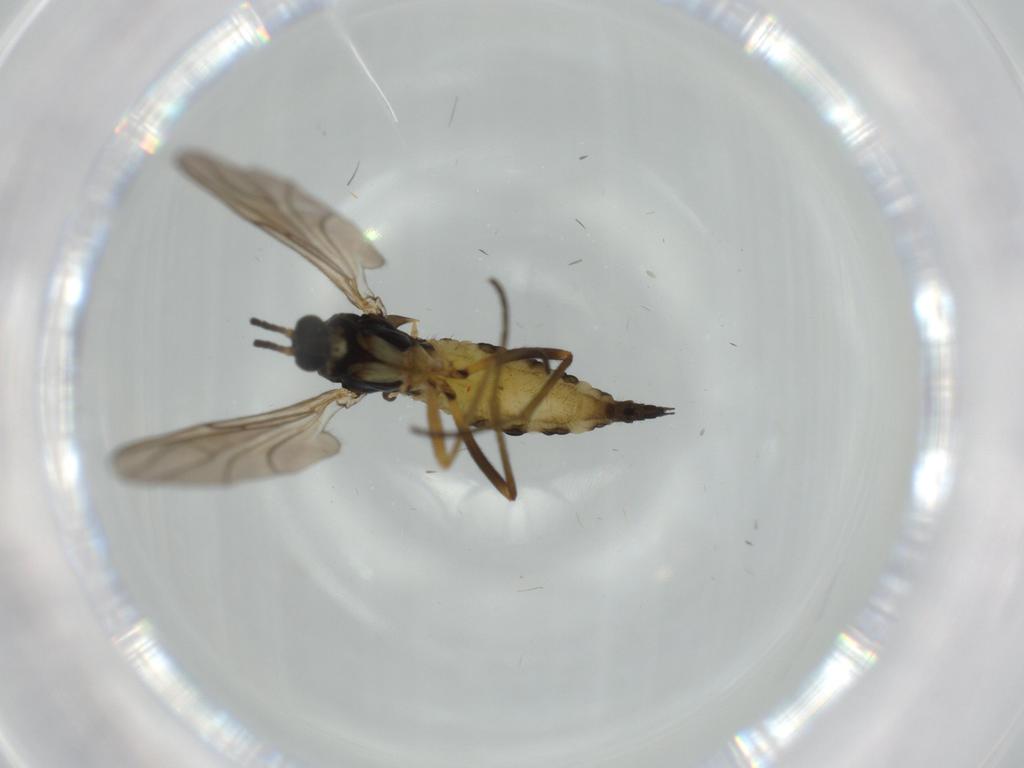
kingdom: Animalia
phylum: Arthropoda
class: Insecta
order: Diptera
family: Sciaridae
